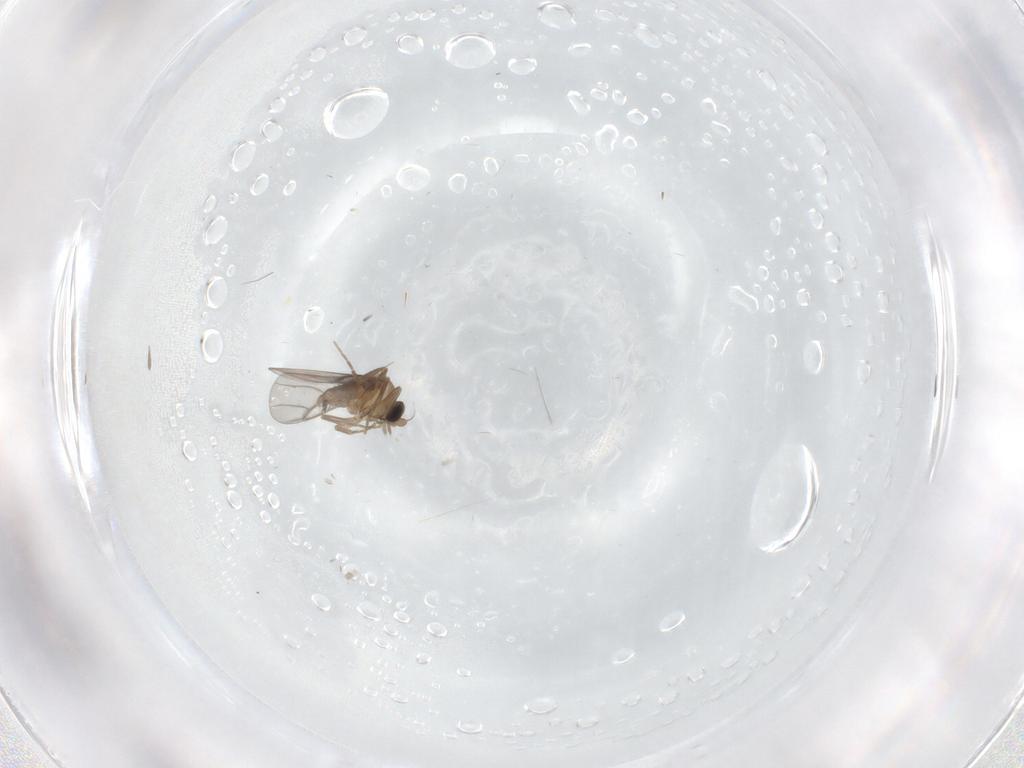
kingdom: Animalia
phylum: Arthropoda
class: Insecta
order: Diptera
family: Phoridae
